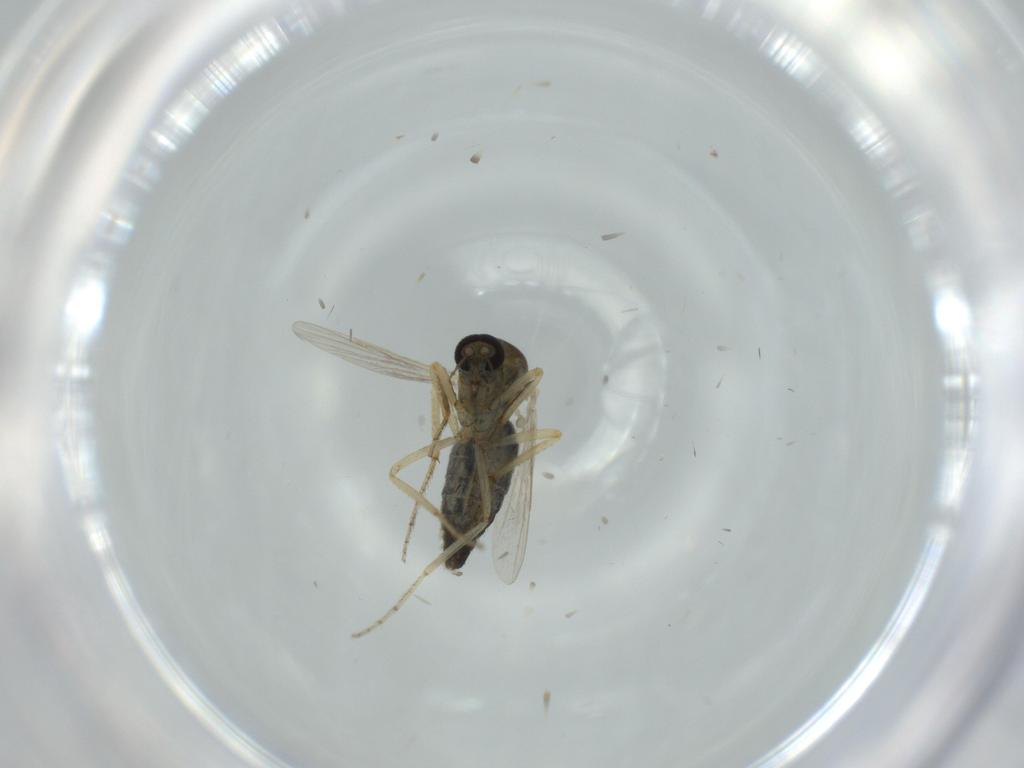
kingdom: Animalia
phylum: Arthropoda
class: Insecta
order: Diptera
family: Ceratopogonidae
